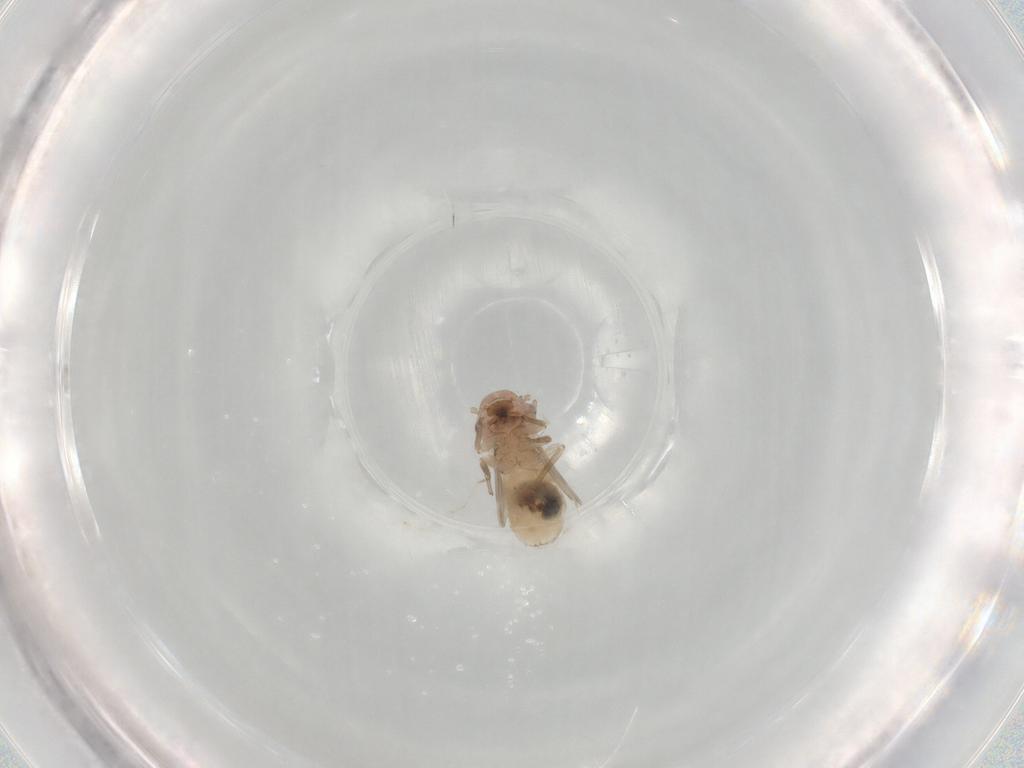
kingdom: Animalia
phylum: Arthropoda
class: Insecta
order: Psocodea
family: Peripsocidae
